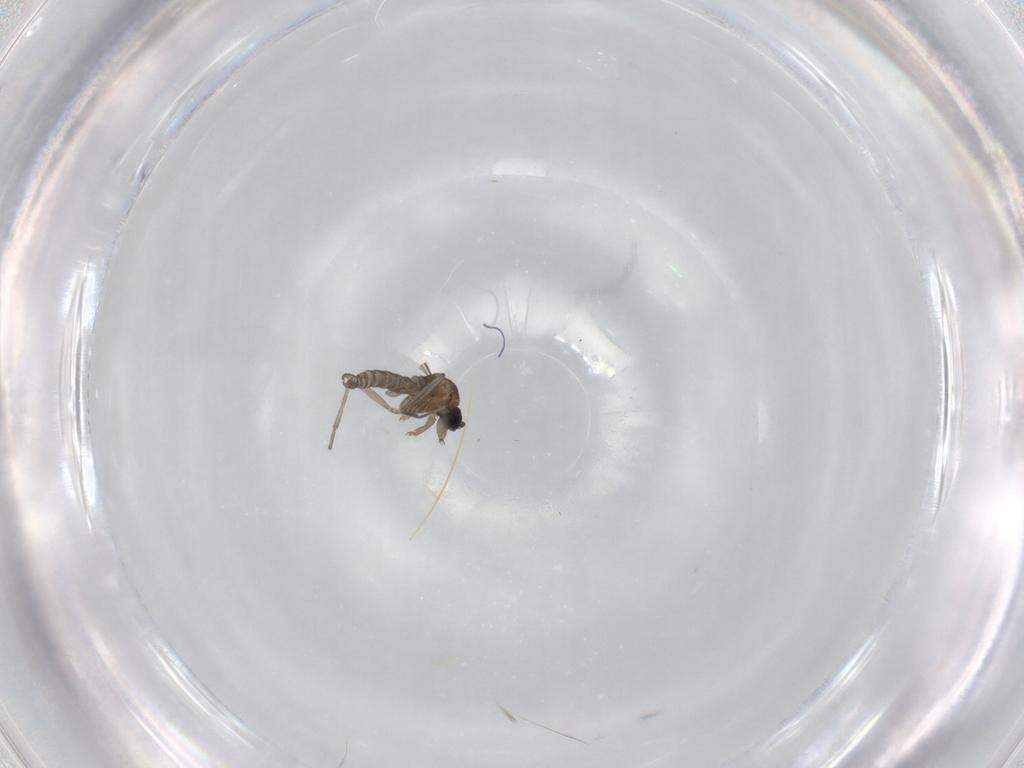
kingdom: Animalia
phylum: Arthropoda
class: Insecta
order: Diptera
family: Sciaridae
